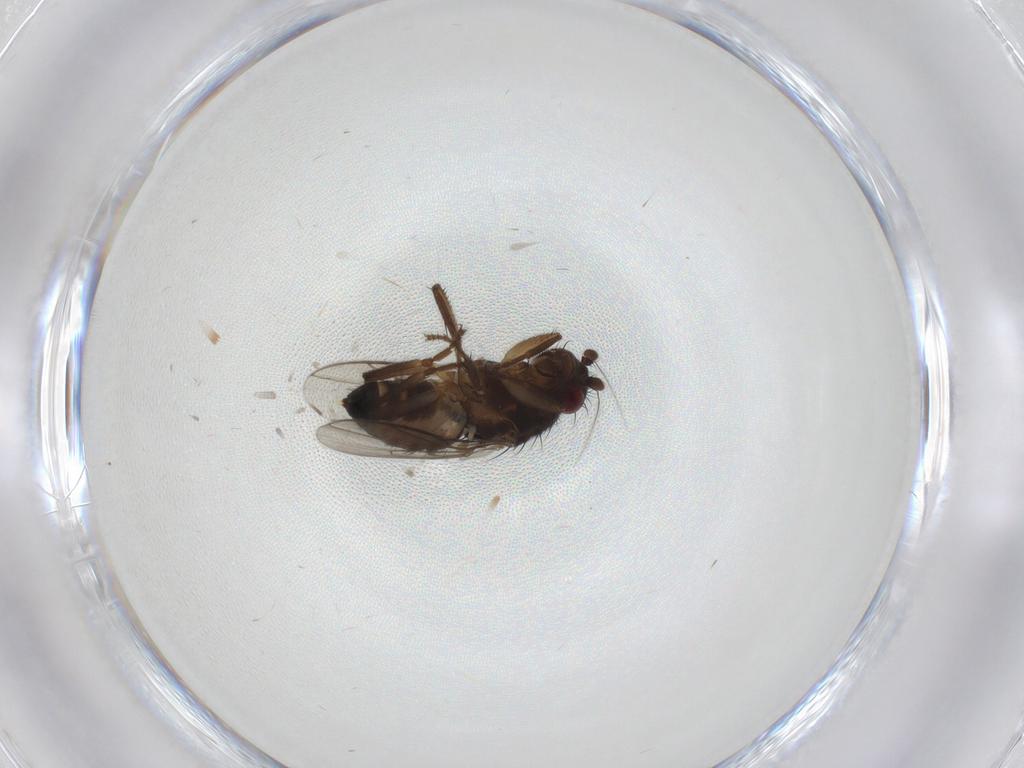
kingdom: Animalia
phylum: Arthropoda
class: Insecta
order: Diptera
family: Sphaeroceridae
